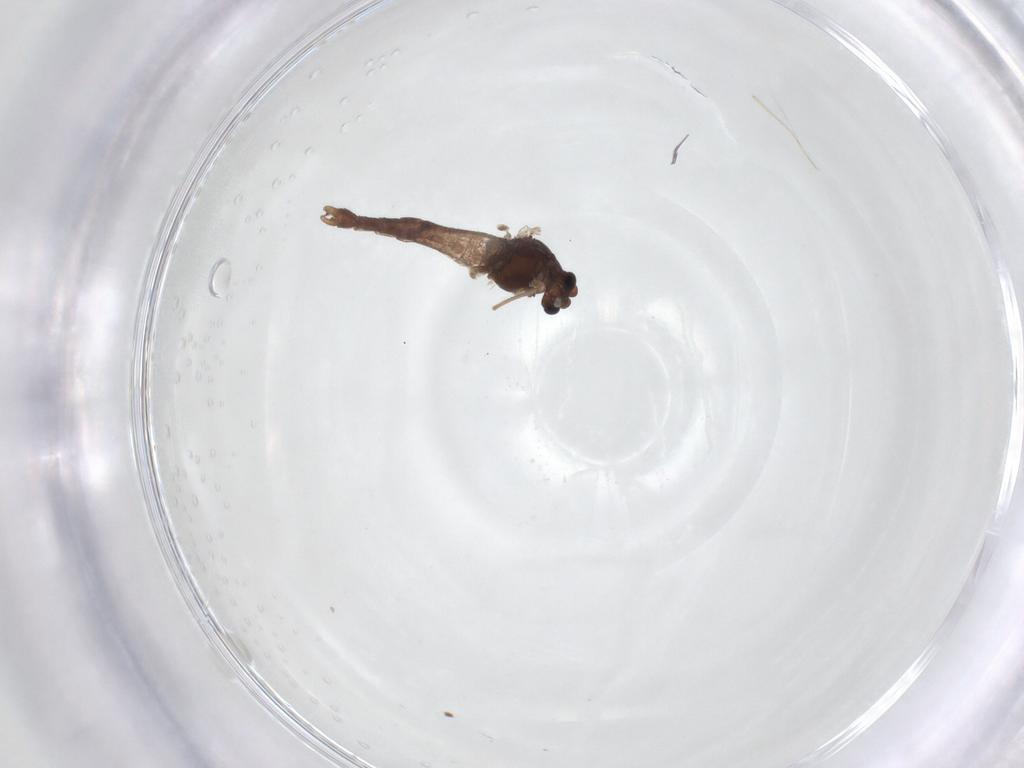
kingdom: Animalia
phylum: Arthropoda
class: Insecta
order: Diptera
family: Chironomidae
